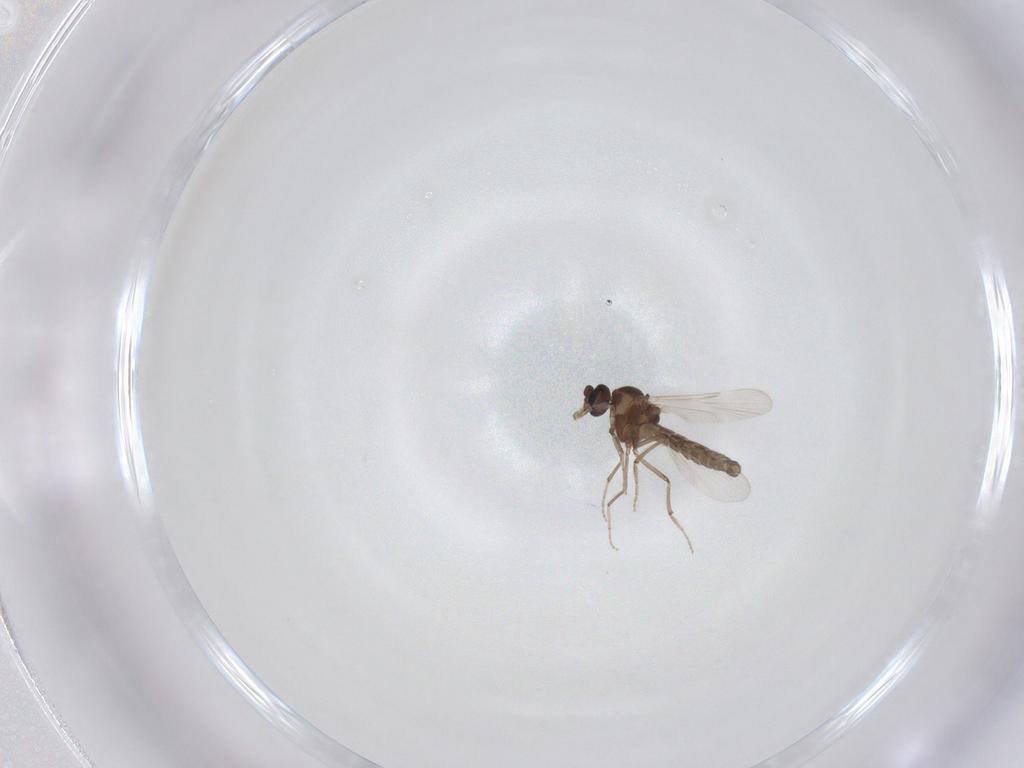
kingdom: Animalia
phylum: Arthropoda
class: Insecta
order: Diptera
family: Ceratopogonidae
